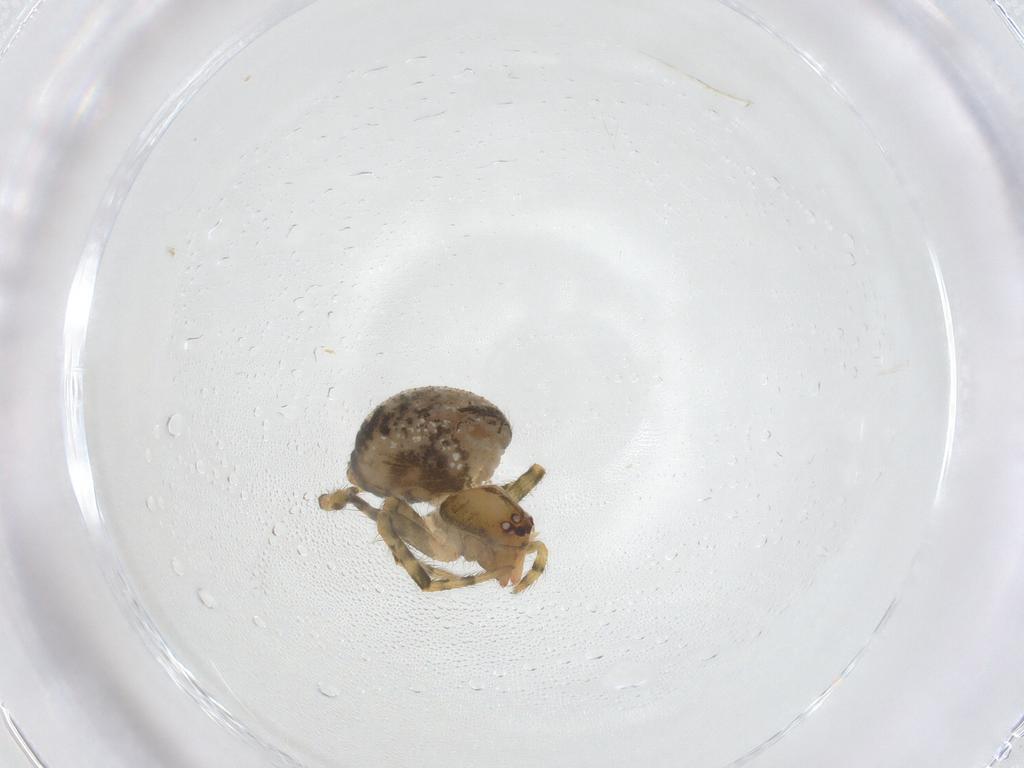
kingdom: Animalia
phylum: Arthropoda
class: Arachnida
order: Araneae
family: Theridiidae
